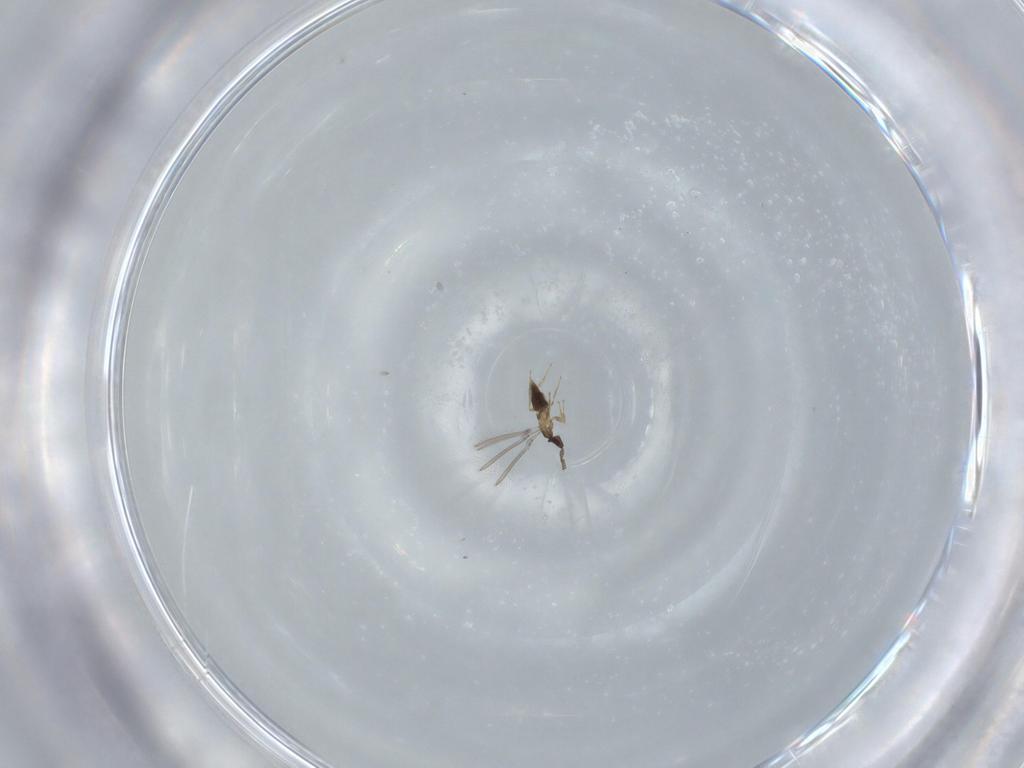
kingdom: Animalia
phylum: Arthropoda
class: Insecta
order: Hymenoptera
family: Mymaridae
